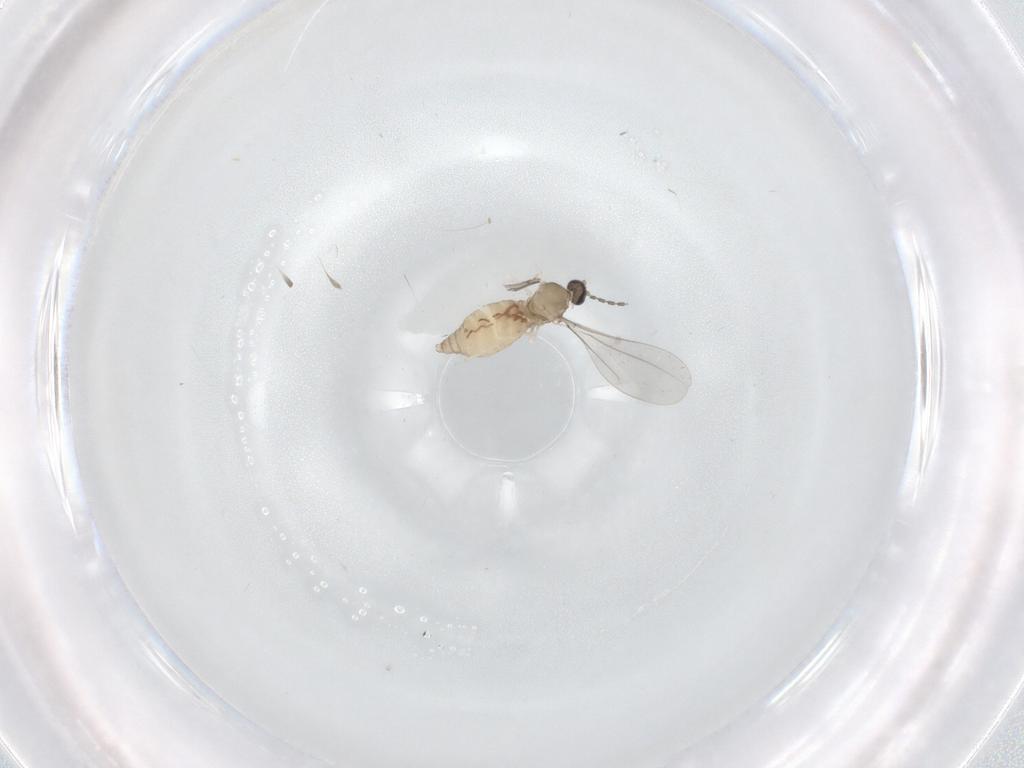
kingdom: Animalia
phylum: Arthropoda
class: Insecta
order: Diptera
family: Cecidomyiidae
